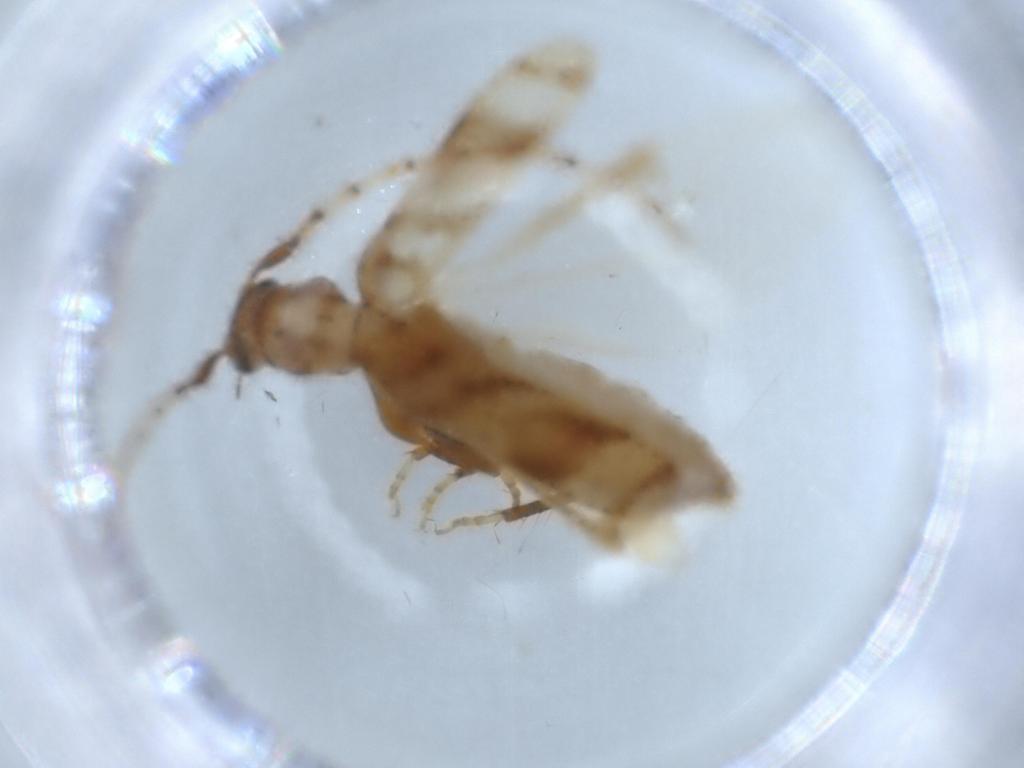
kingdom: Animalia
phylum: Arthropoda
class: Insecta
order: Coleoptera
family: Cerambycidae
